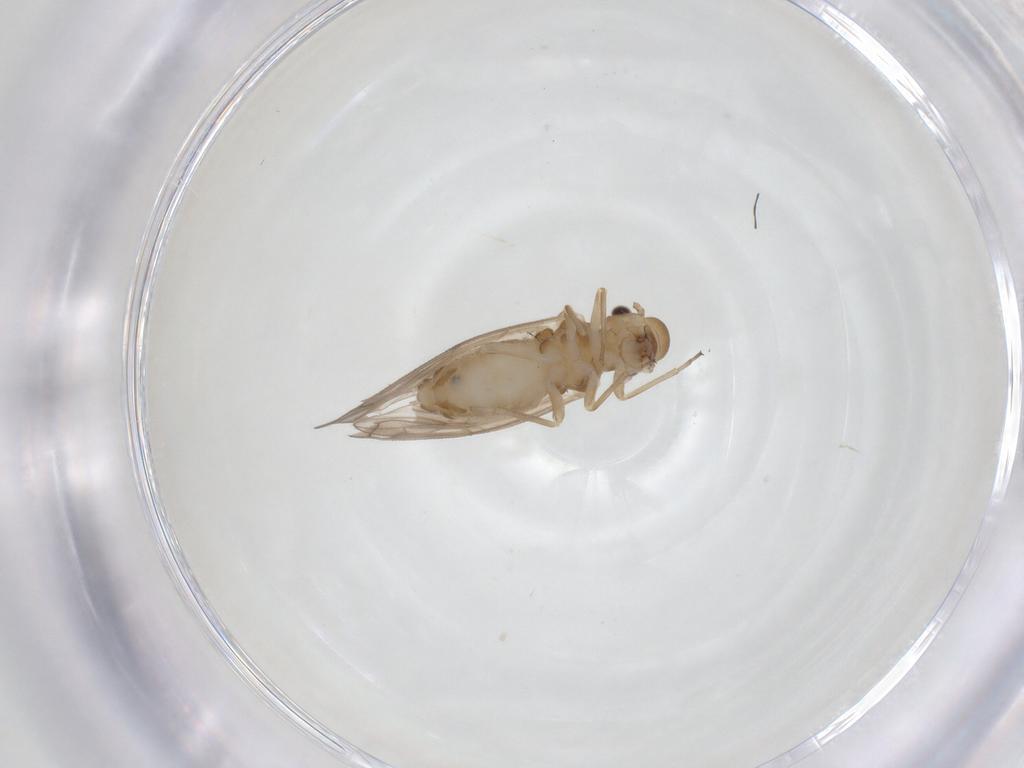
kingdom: Animalia
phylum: Arthropoda
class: Insecta
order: Psocodea
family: Philotarsidae
